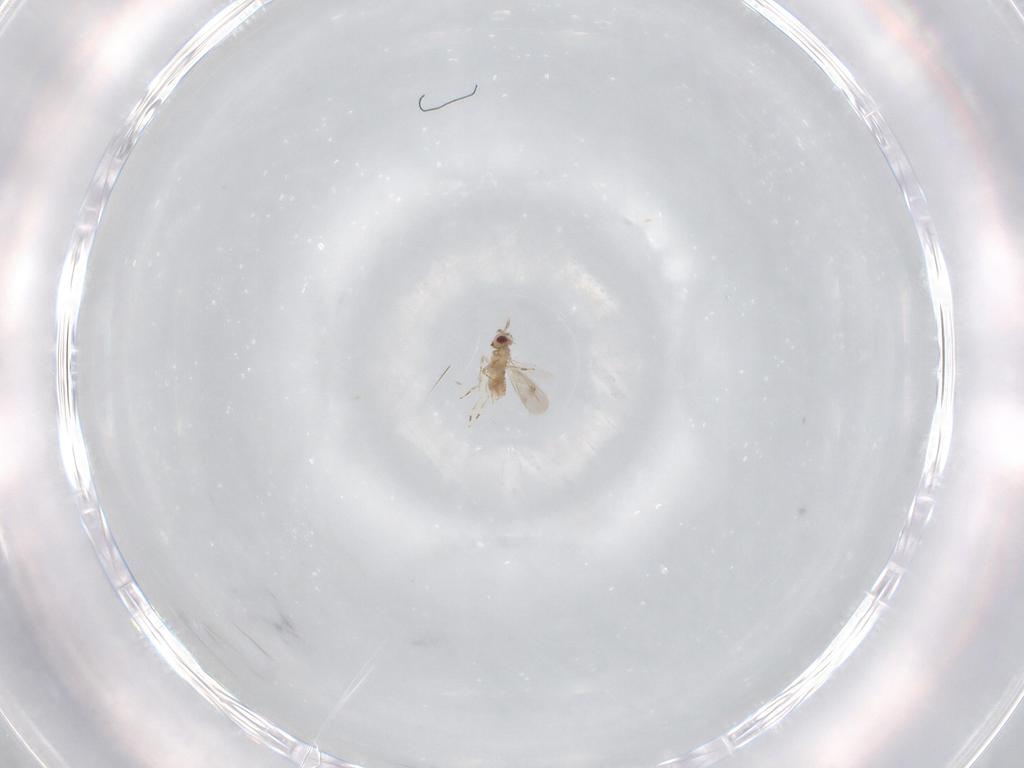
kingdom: Animalia
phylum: Arthropoda
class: Insecta
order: Hymenoptera
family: Aphelinidae
